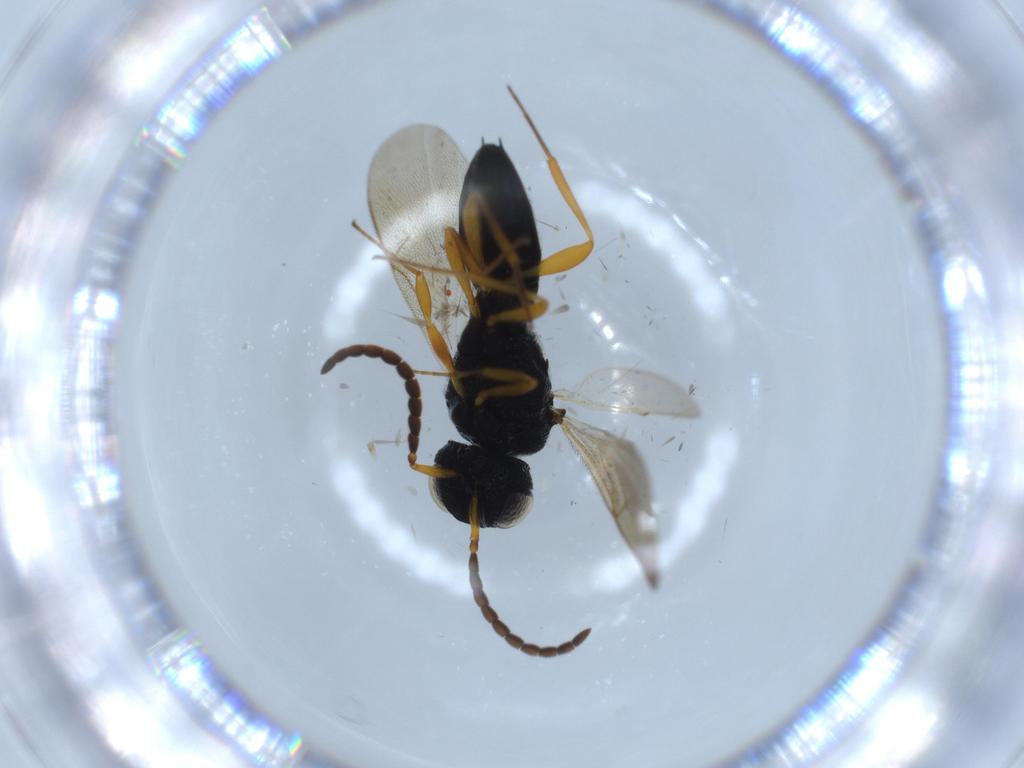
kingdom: Animalia
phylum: Arthropoda
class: Insecta
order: Hymenoptera
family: Scelionidae
